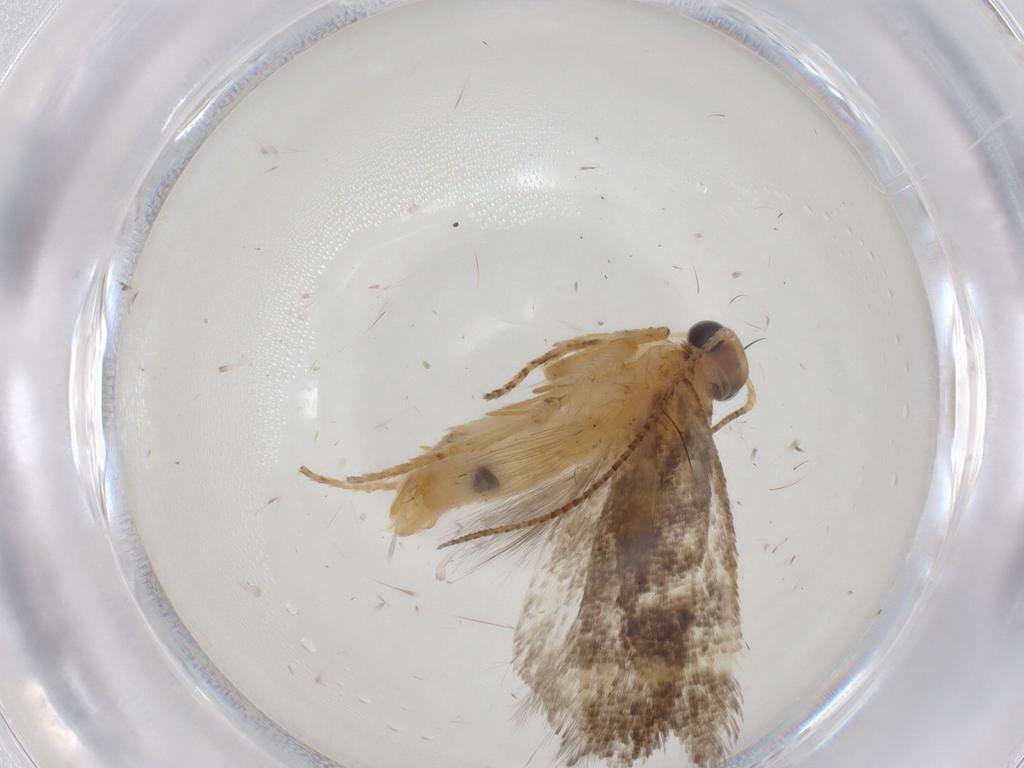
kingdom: Animalia
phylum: Arthropoda
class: Insecta
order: Lepidoptera
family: Gelechiidae
